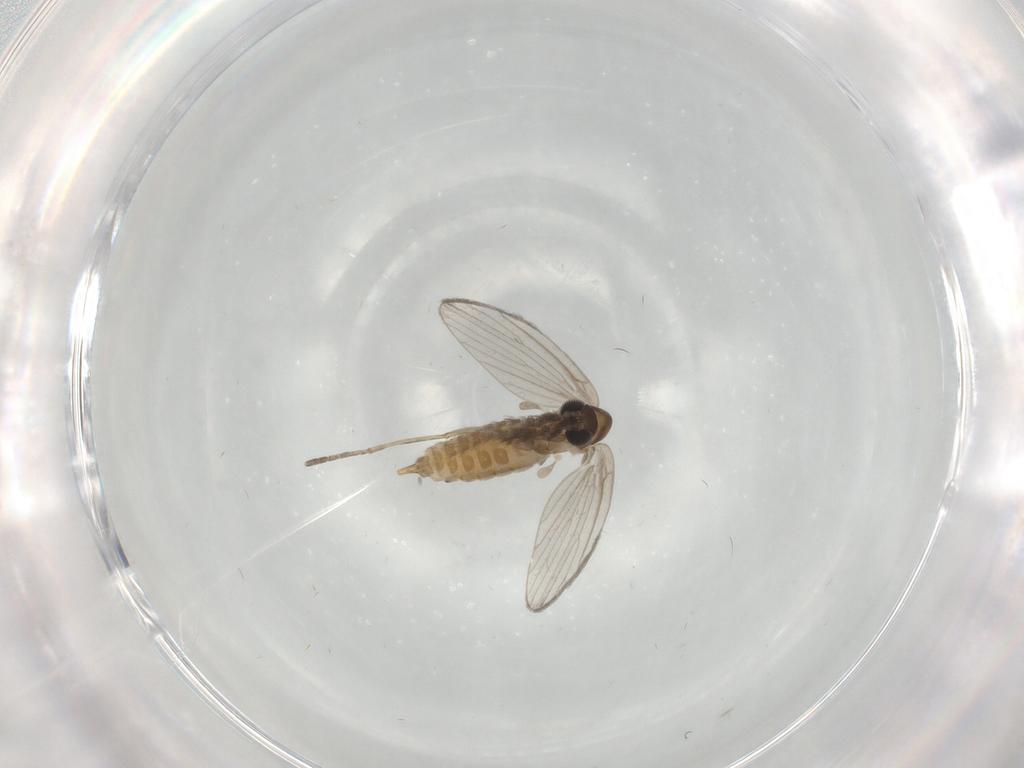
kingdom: Animalia
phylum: Arthropoda
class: Insecta
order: Diptera
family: Psychodidae
